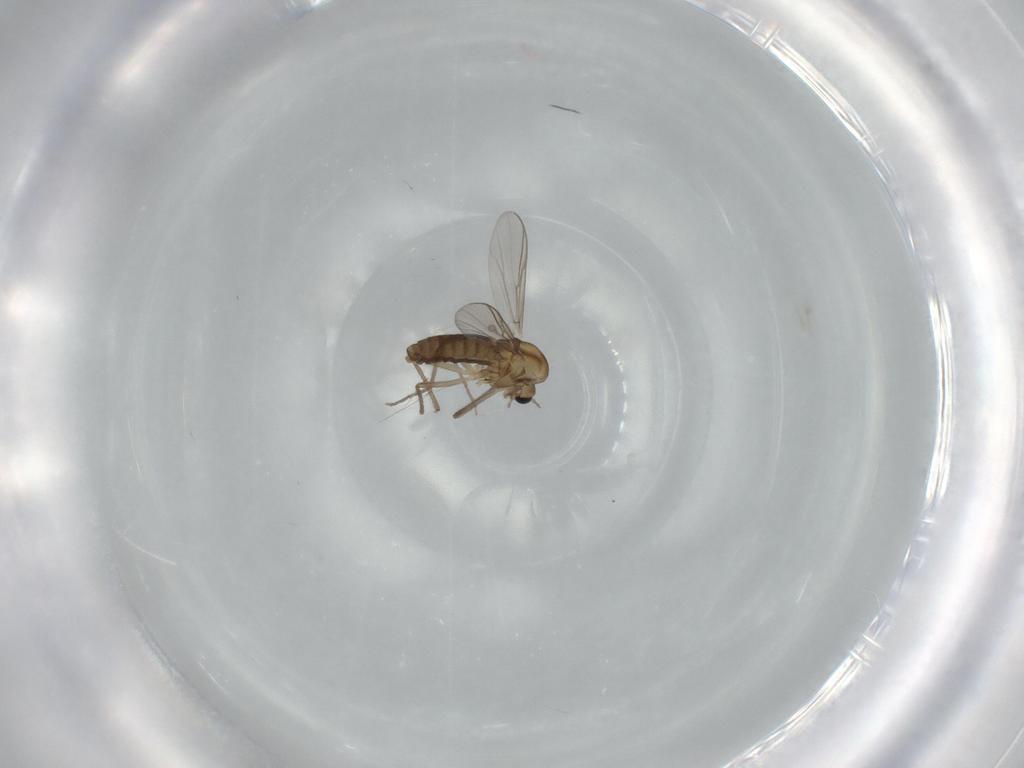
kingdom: Animalia
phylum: Arthropoda
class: Insecta
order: Diptera
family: Chironomidae
